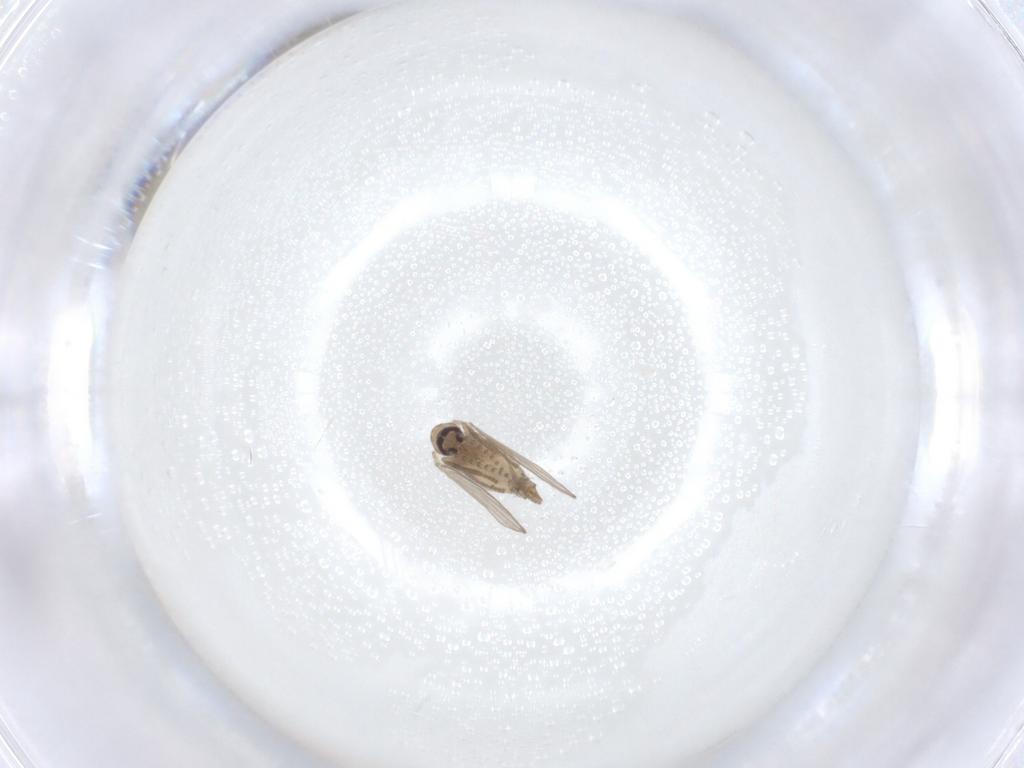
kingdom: Animalia
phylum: Arthropoda
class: Insecta
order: Diptera
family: Psychodidae
